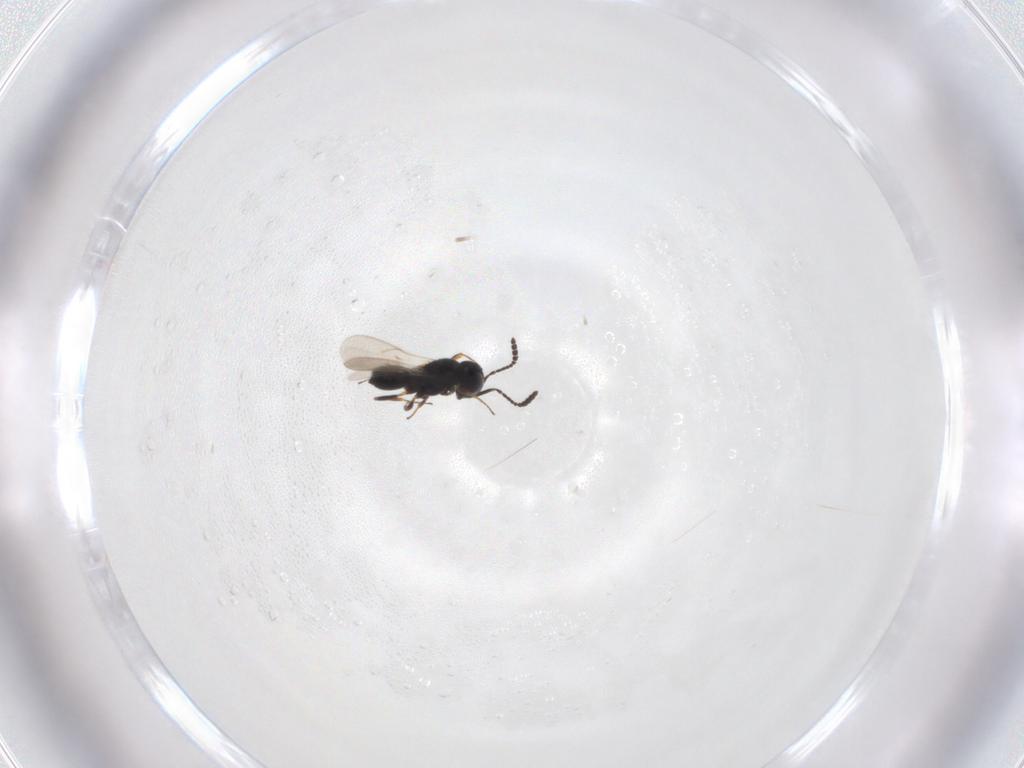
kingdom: Animalia
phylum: Arthropoda
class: Insecta
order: Hymenoptera
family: Scelionidae
